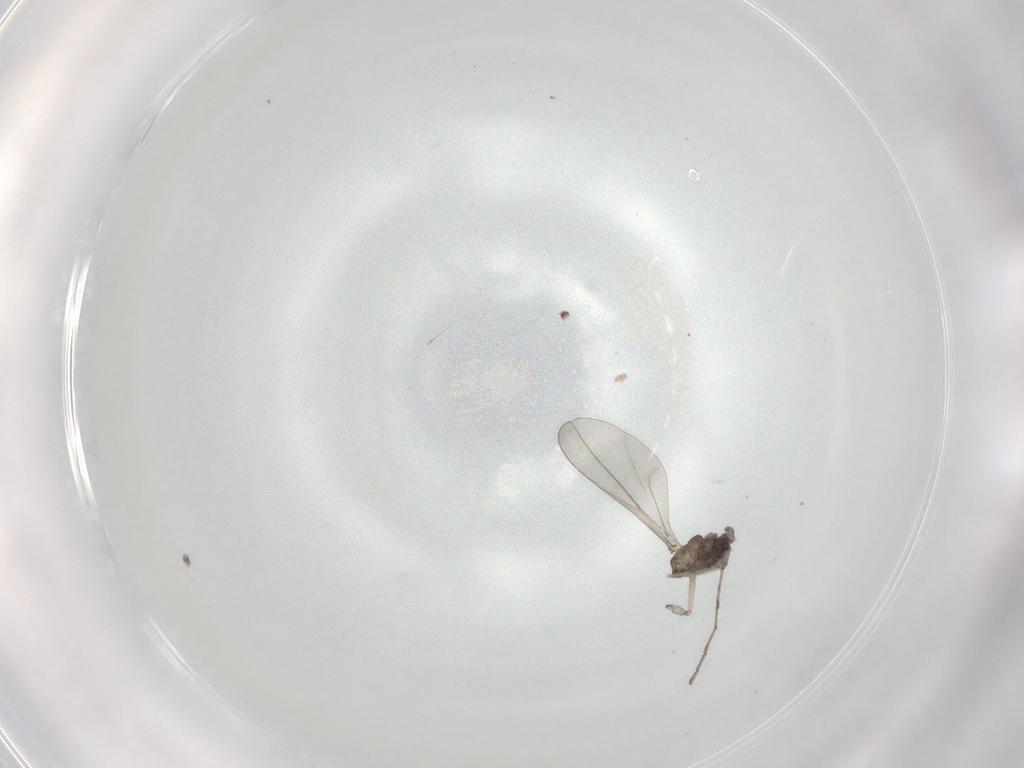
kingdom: Animalia
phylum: Arthropoda
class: Insecta
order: Diptera
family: Cecidomyiidae
